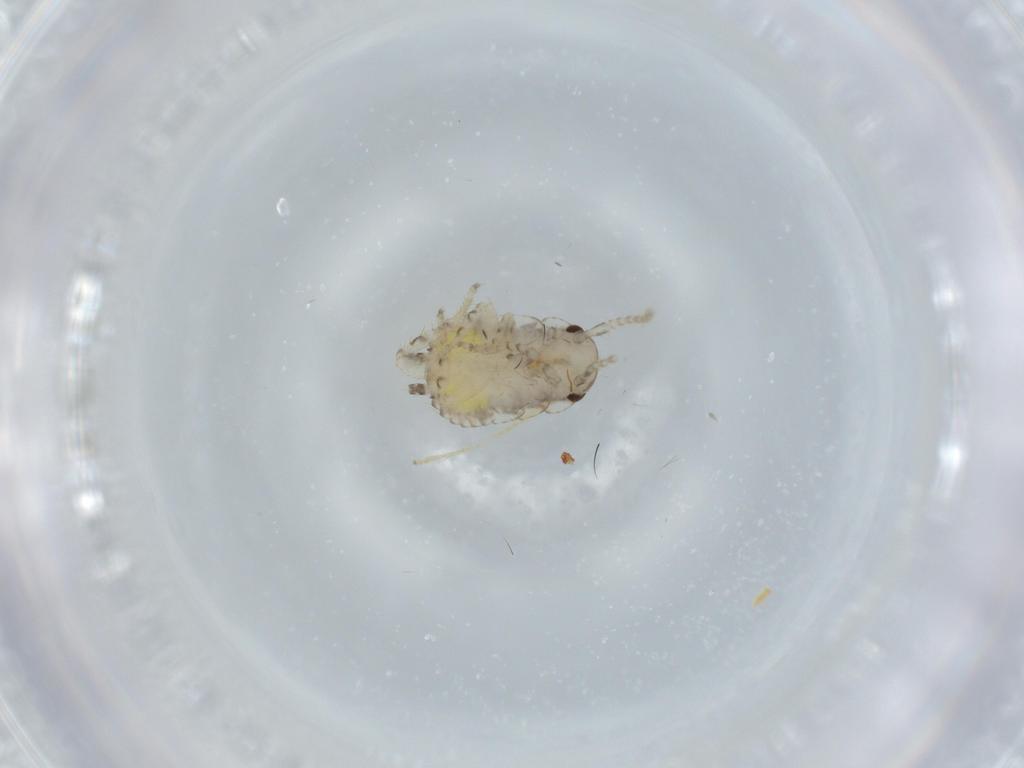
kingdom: Animalia
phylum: Arthropoda
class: Insecta
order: Blattodea
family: Ectobiidae
